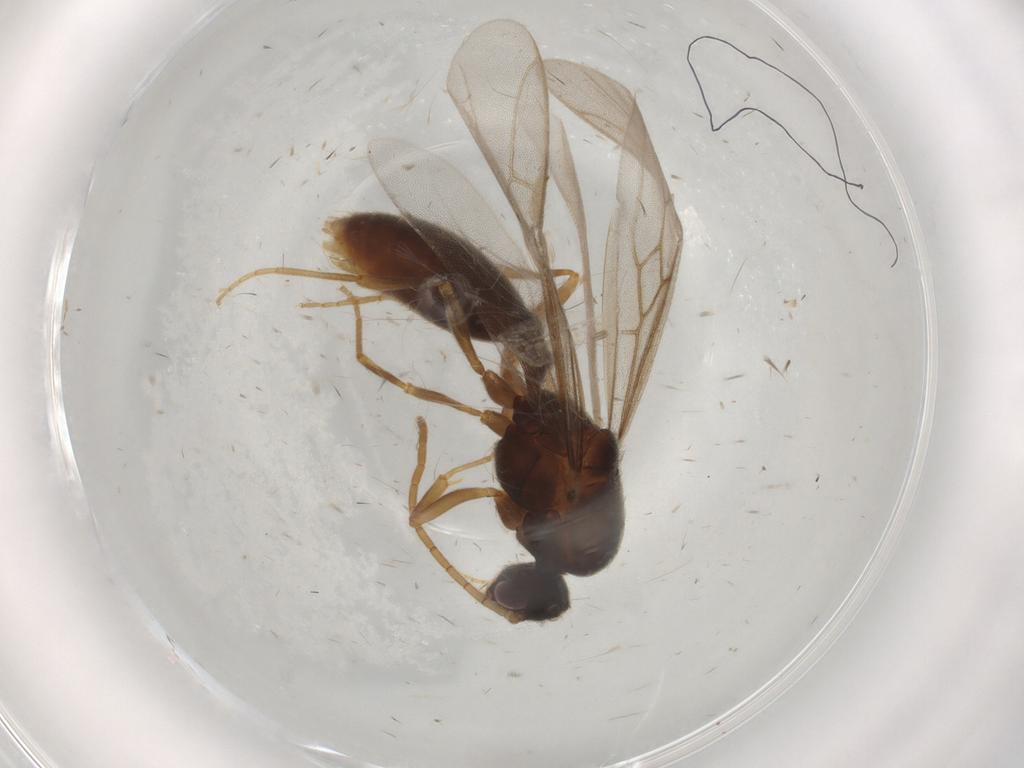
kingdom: Animalia
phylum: Arthropoda
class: Insecta
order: Hymenoptera
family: Formicidae
